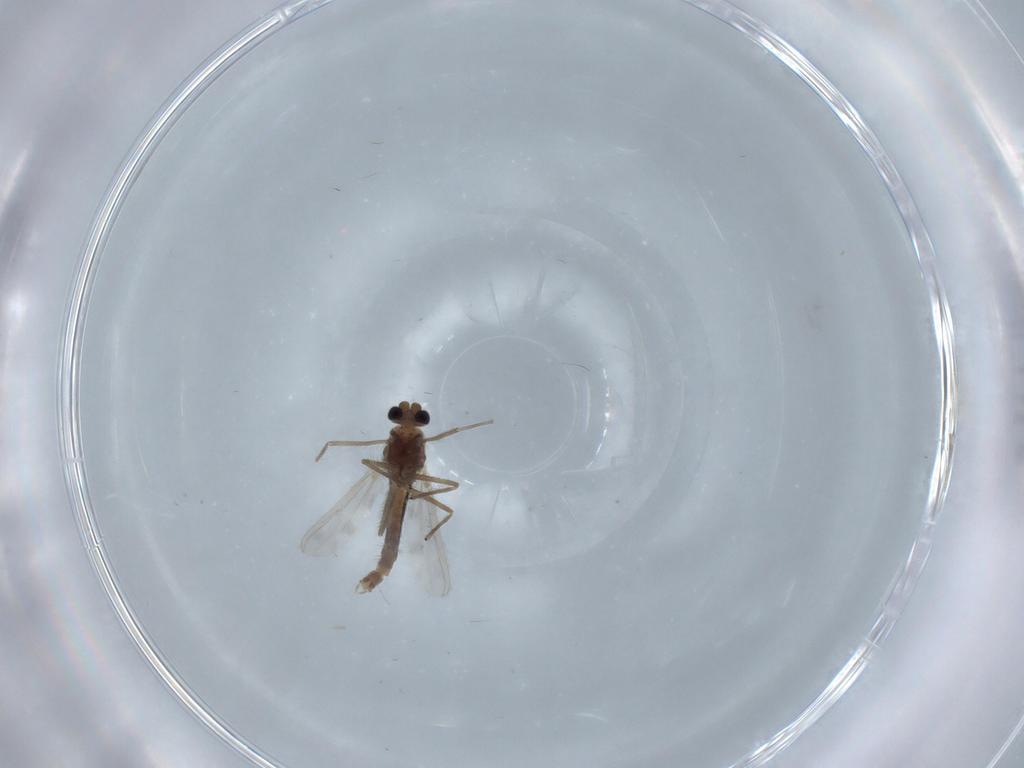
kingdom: Animalia
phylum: Arthropoda
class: Insecta
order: Diptera
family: Chironomidae
